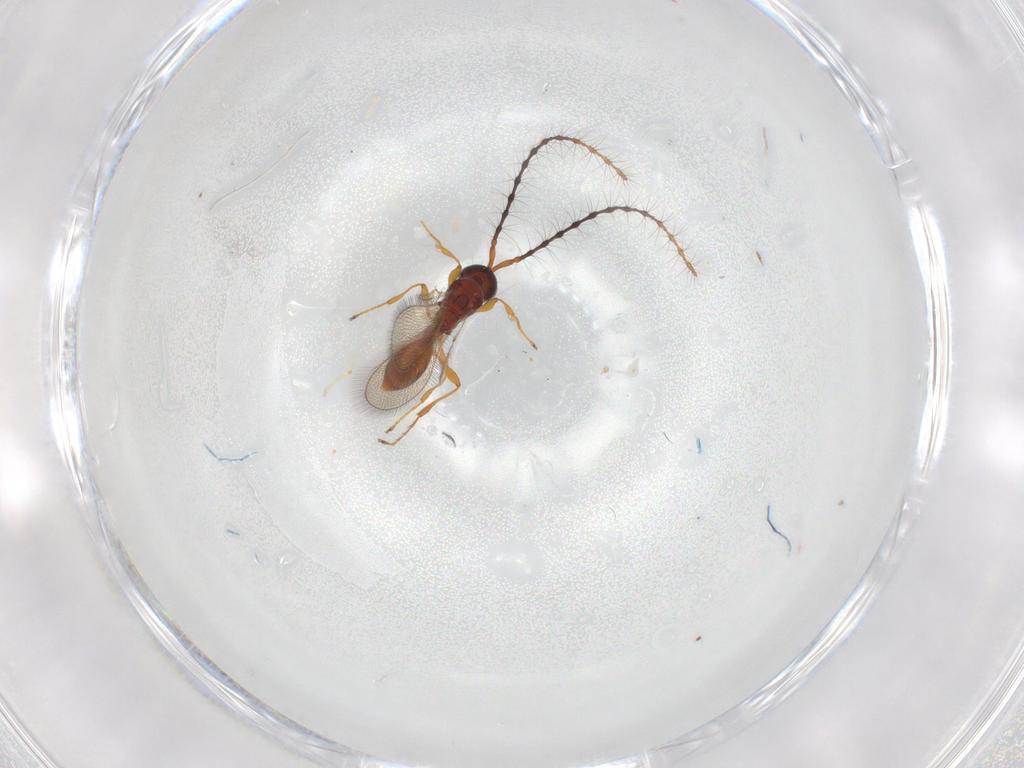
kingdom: Animalia
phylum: Arthropoda
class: Insecta
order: Hymenoptera
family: Diapriidae
